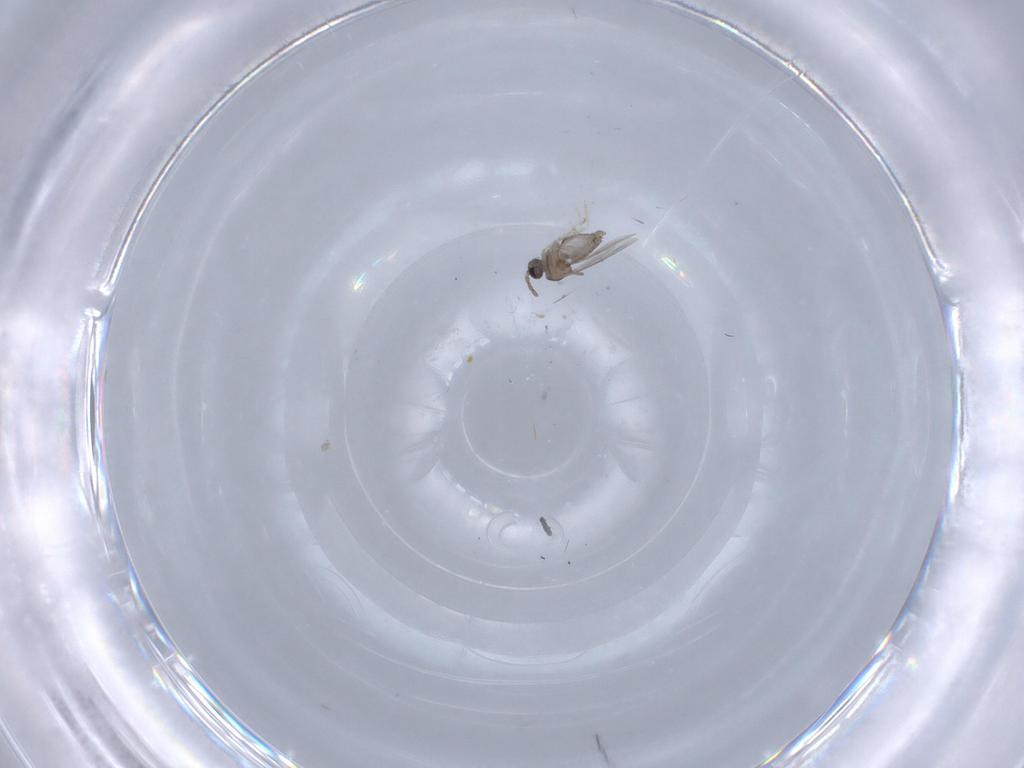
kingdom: Animalia
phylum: Arthropoda
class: Insecta
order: Diptera
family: Cecidomyiidae
